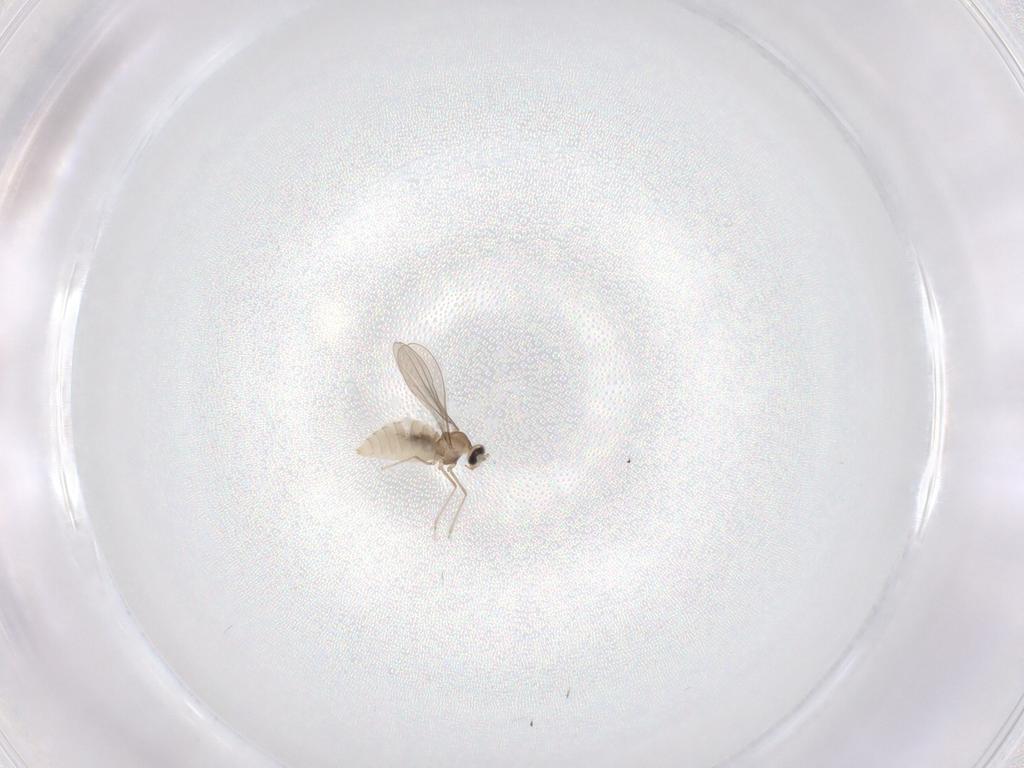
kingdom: Animalia
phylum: Arthropoda
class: Insecta
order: Diptera
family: Cecidomyiidae
